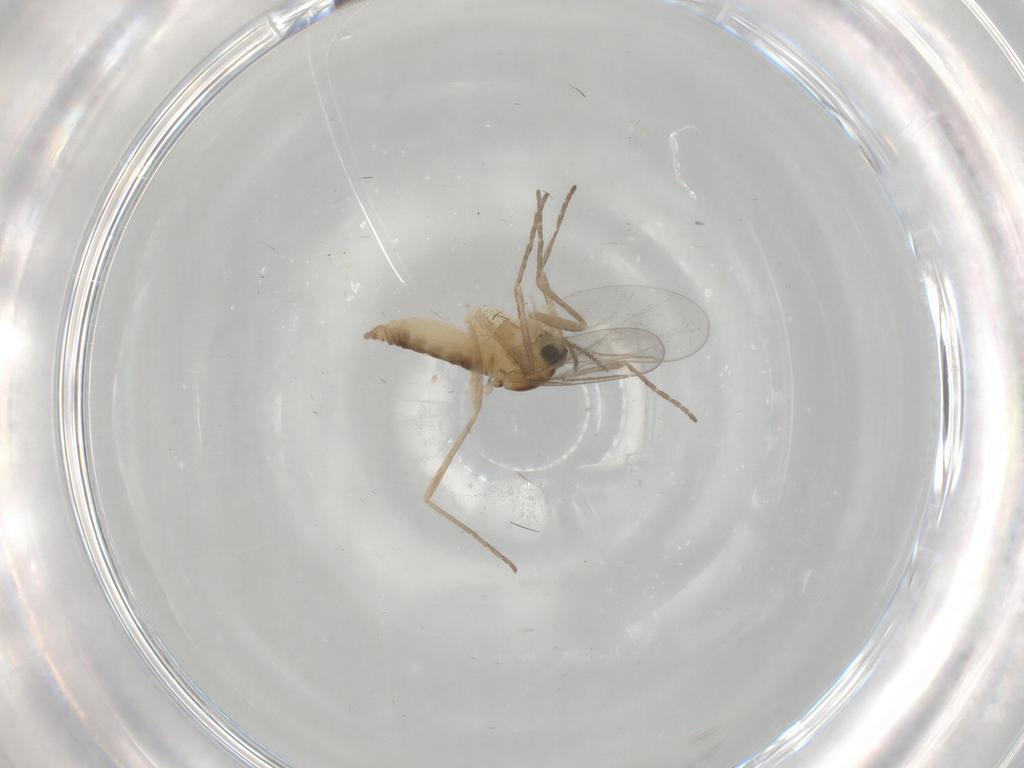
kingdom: Animalia
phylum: Arthropoda
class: Insecta
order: Diptera
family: Cecidomyiidae
